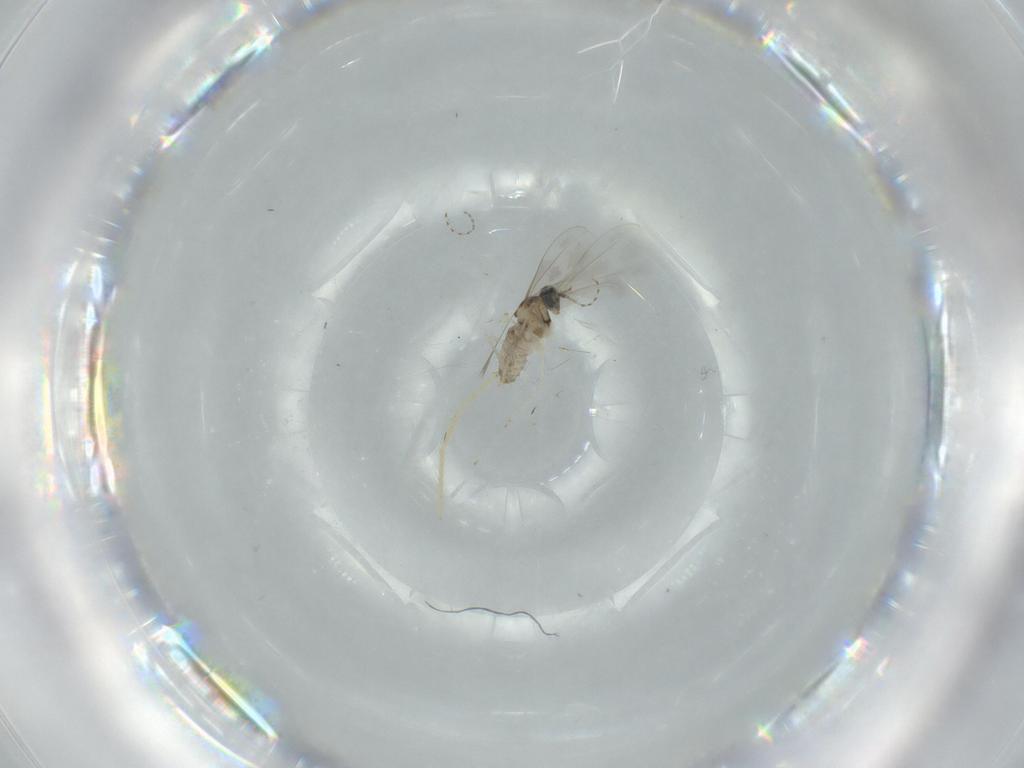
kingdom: Animalia
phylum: Arthropoda
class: Insecta
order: Diptera
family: Chironomidae
